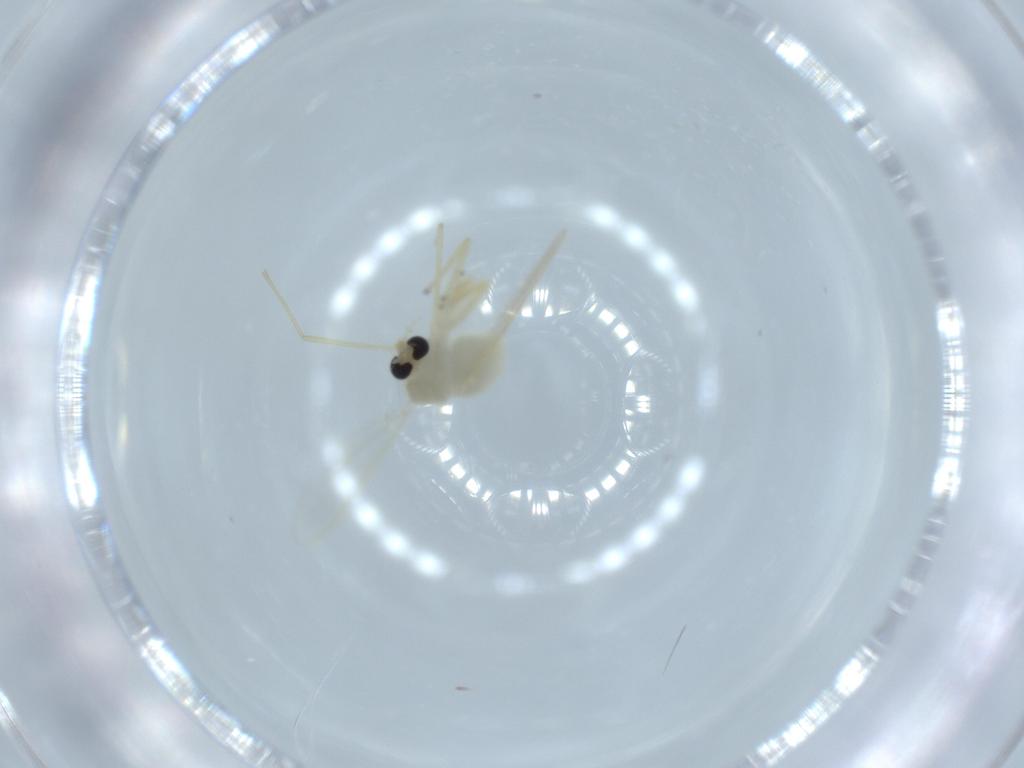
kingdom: Animalia
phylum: Arthropoda
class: Insecta
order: Diptera
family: Chironomidae
